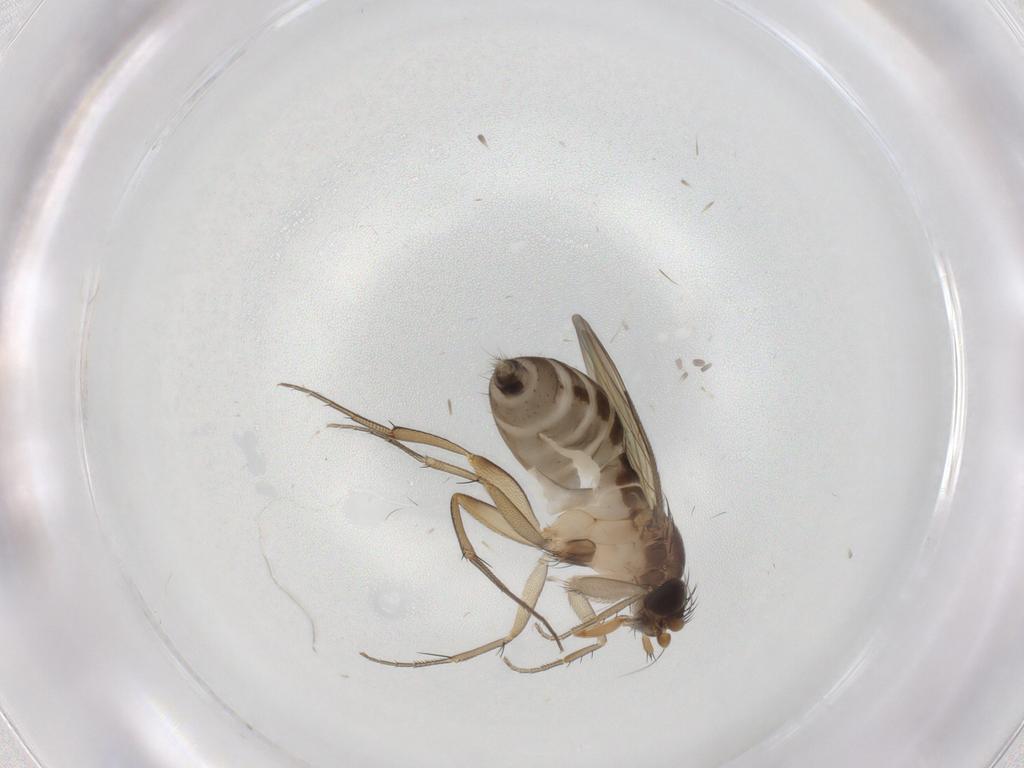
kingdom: Animalia
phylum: Arthropoda
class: Insecta
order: Diptera
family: Phoridae
